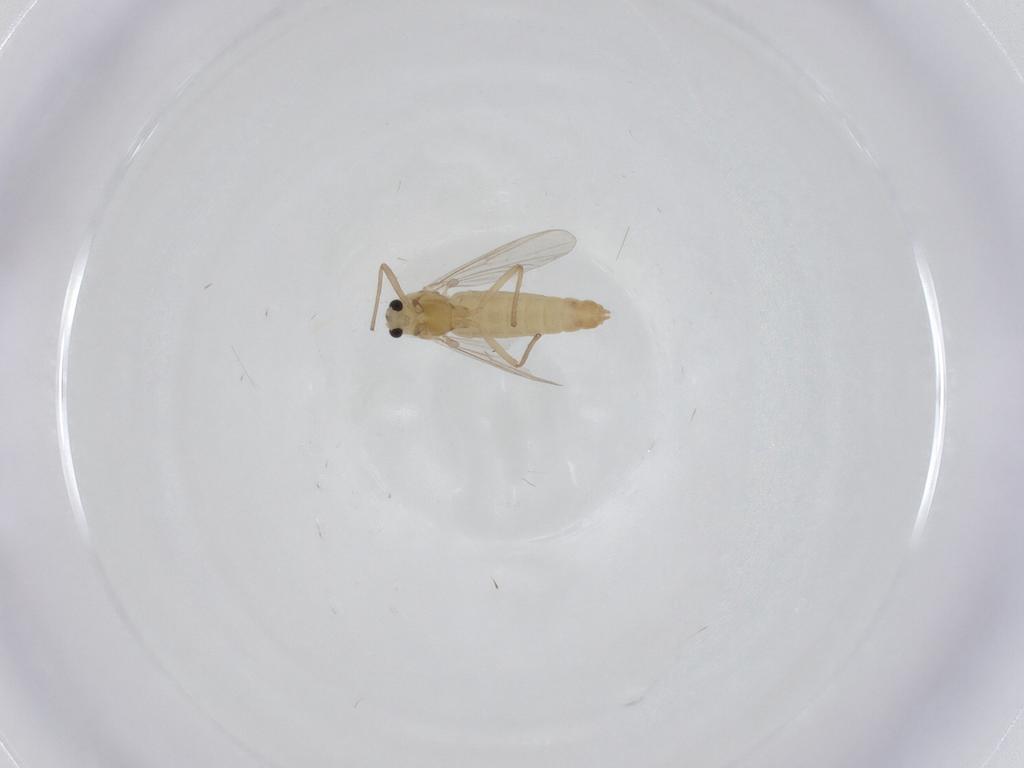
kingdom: Animalia
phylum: Arthropoda
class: Insecta
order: Diptera
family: Chironomidae
